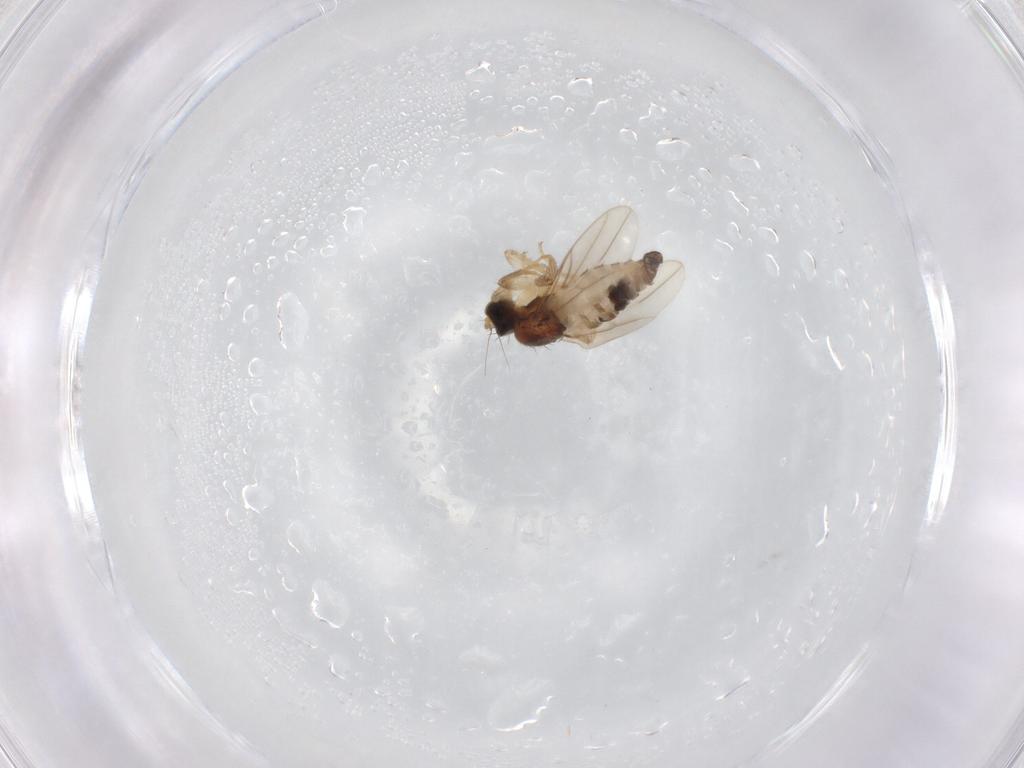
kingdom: Animalia
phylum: Arthropoda
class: Insecta
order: Diptera
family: Hybotidae
